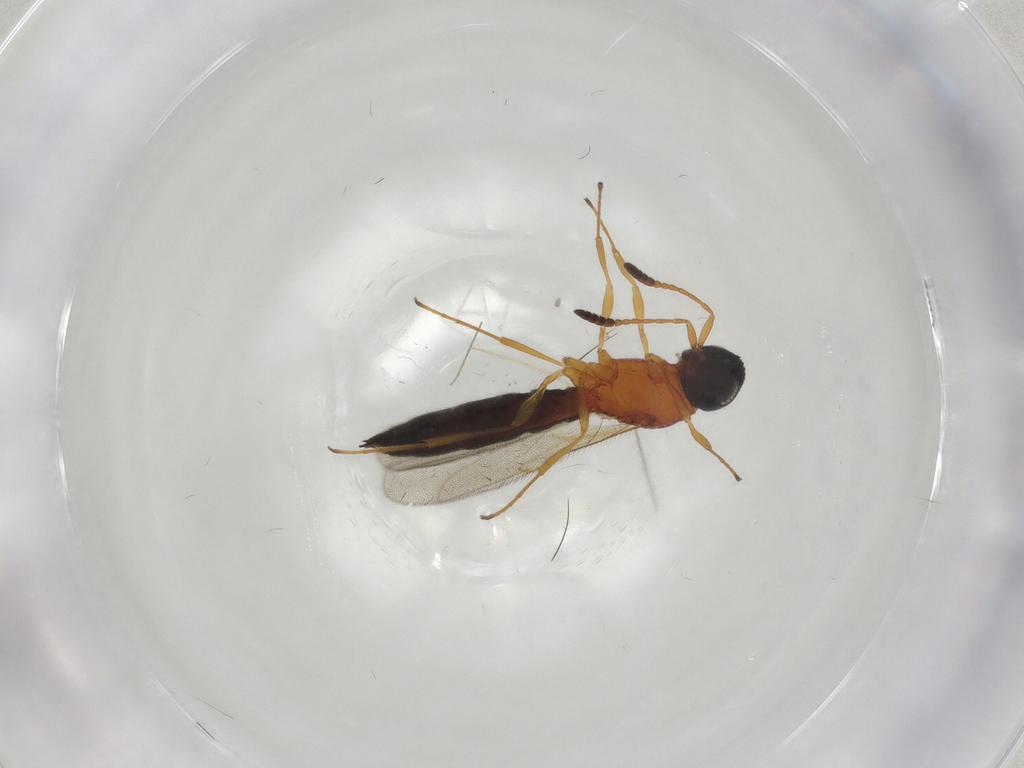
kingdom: Animalia
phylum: Arthropoda
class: Insecta
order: Hymenoptera
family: Scelionidae
